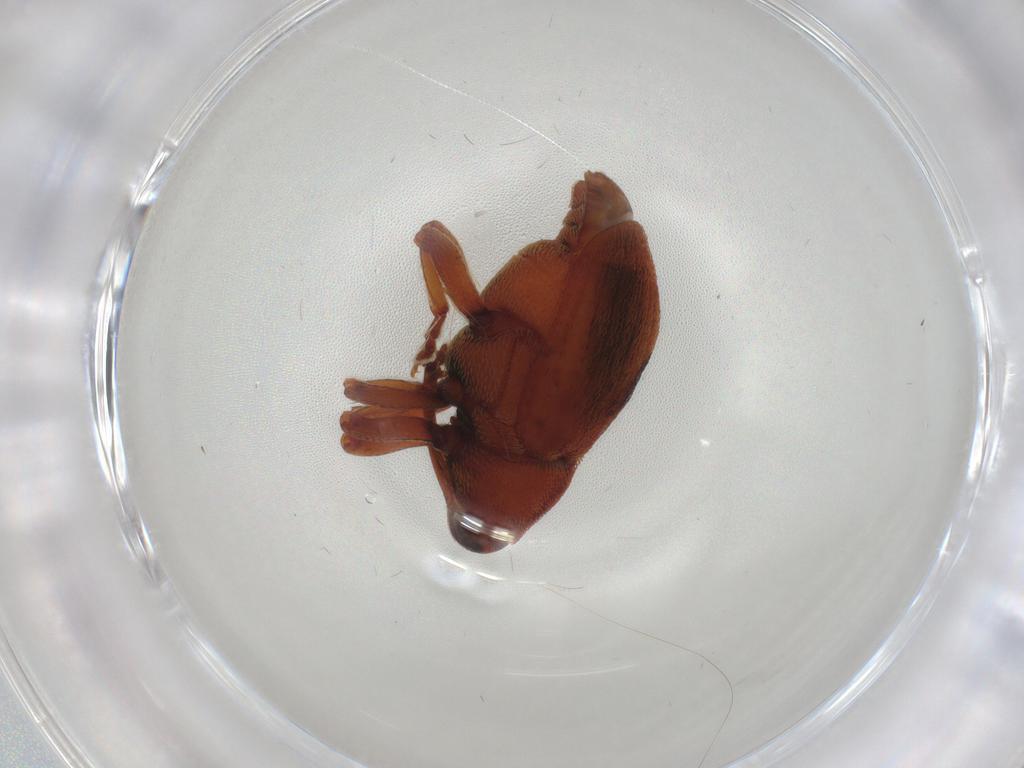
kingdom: Animalia
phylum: Arthropoda
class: Insecta
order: Coleoptera
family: Curculionidae
